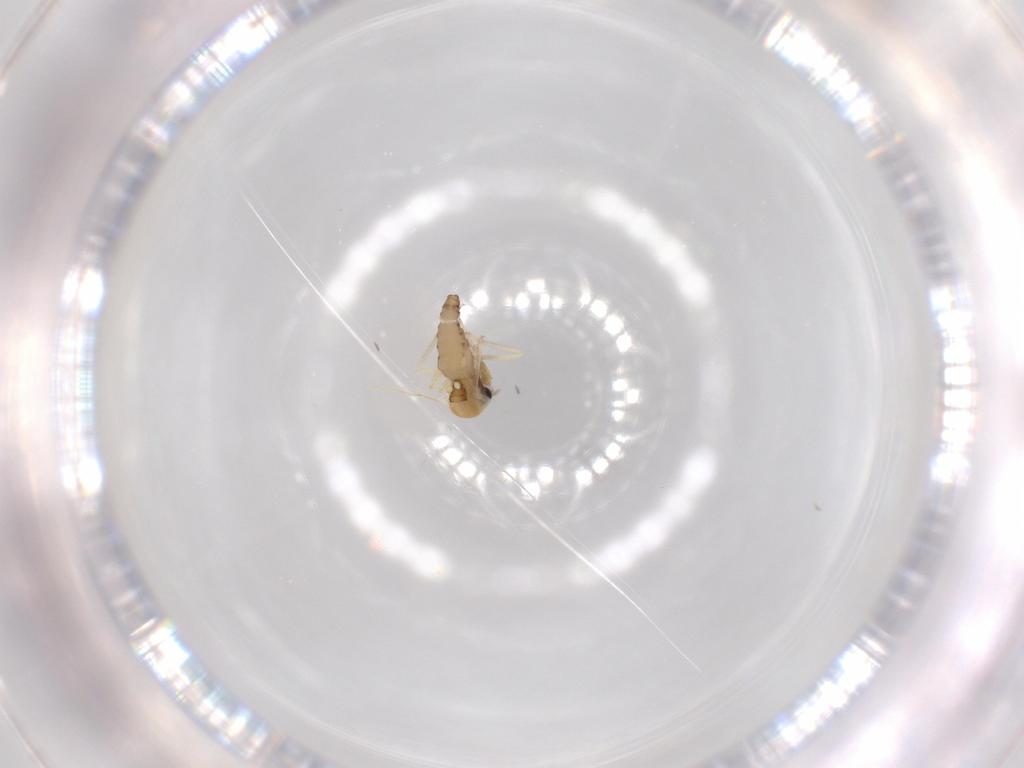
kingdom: Animalia
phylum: Arthropoda
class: Insecta
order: Diptera
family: Ceratopogonidae
